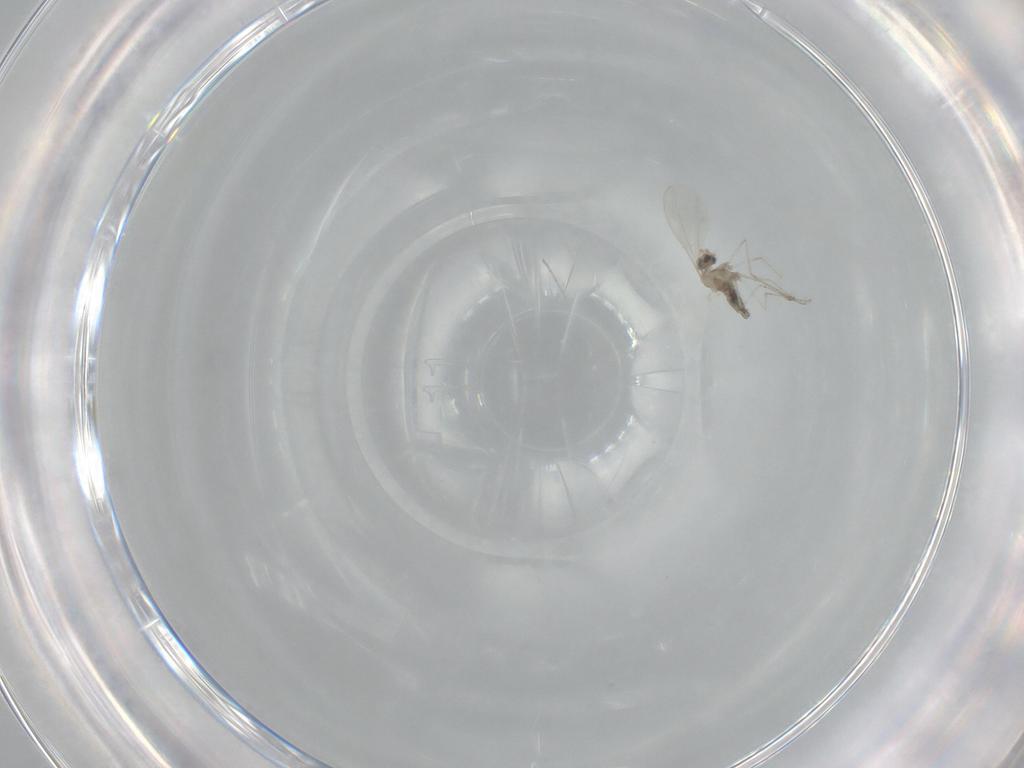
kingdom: Animalia
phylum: Arthropoda
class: Insecta
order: Diptera
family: Cecidomyiidae
